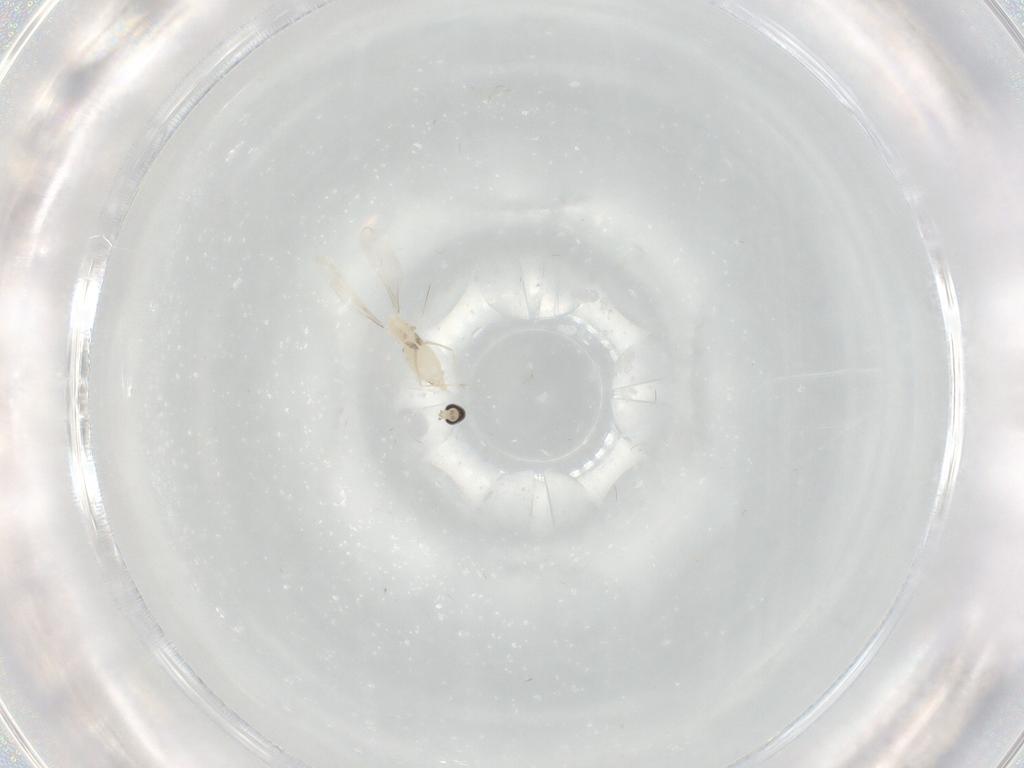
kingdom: Animalia
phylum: Arthropoda
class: Insecta
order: Diptera
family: Cecidomyiidae
